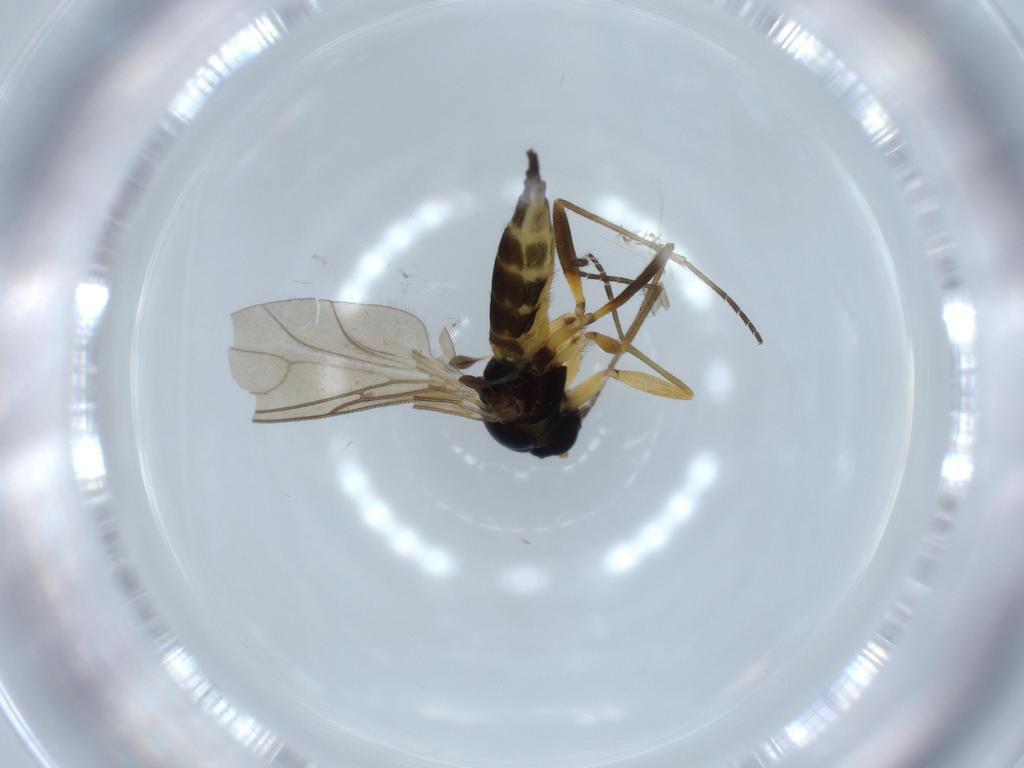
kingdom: Animalia
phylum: Arthropoda
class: Insecta
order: Diptera
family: Sciaridae
